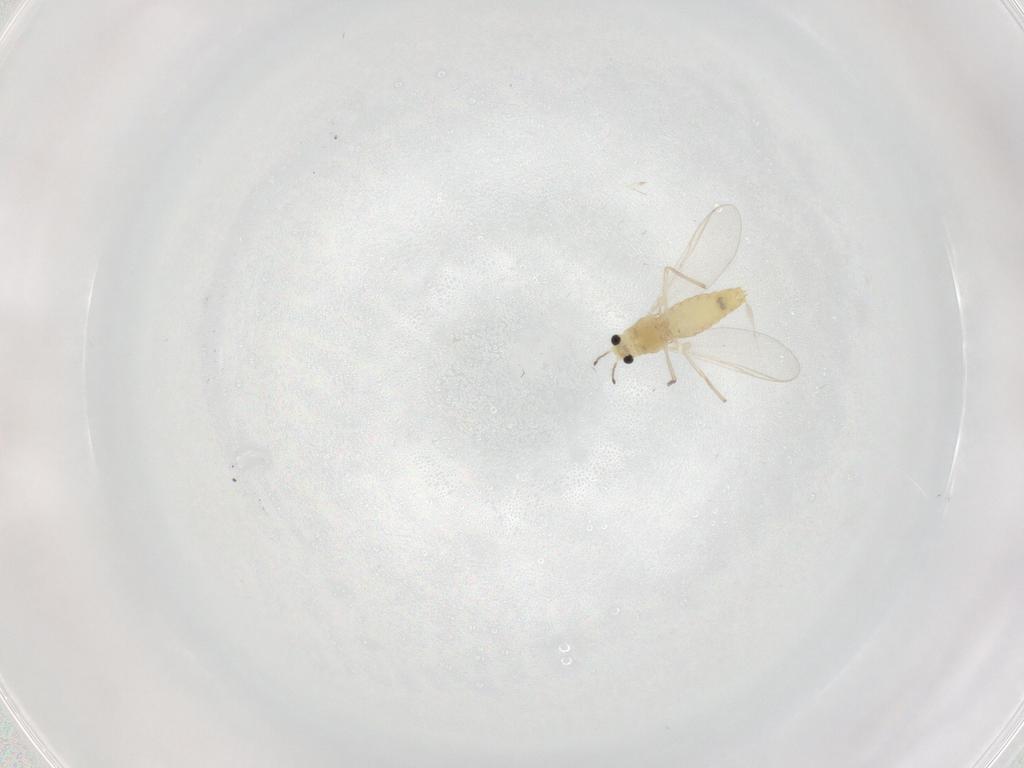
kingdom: Animalia
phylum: Arthropoda
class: Insecta
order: Diptera
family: Chironomidae
